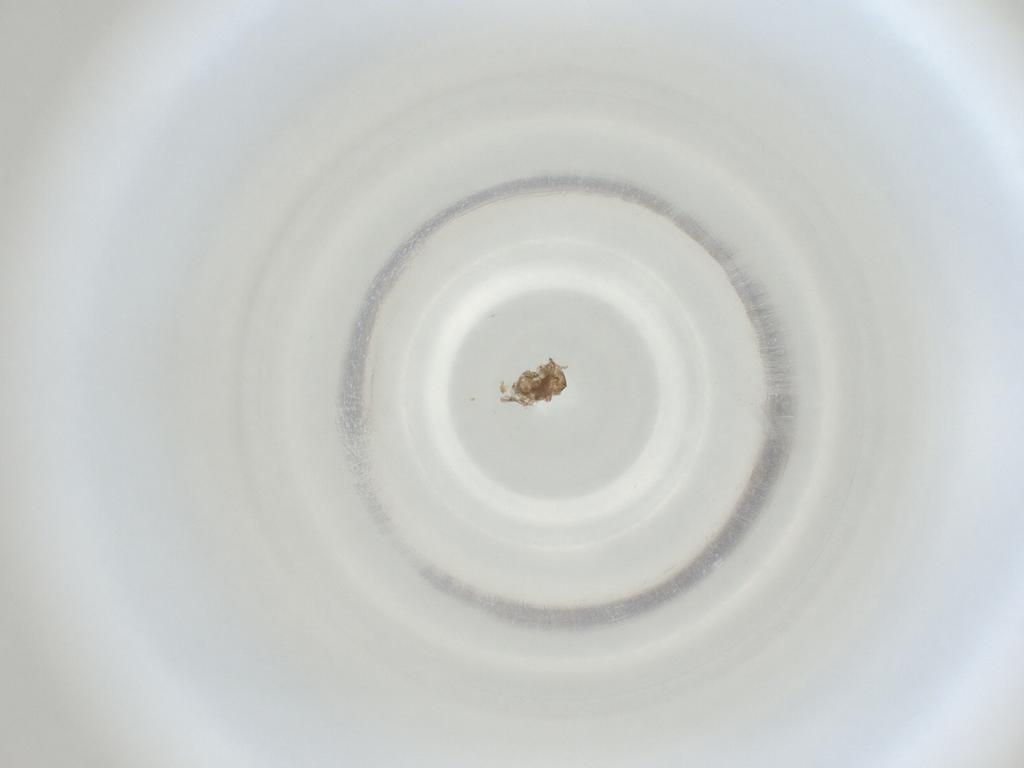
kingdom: Animalia
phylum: Arthropoda
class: Insecta
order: Diptera
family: Cecidomyiidae
